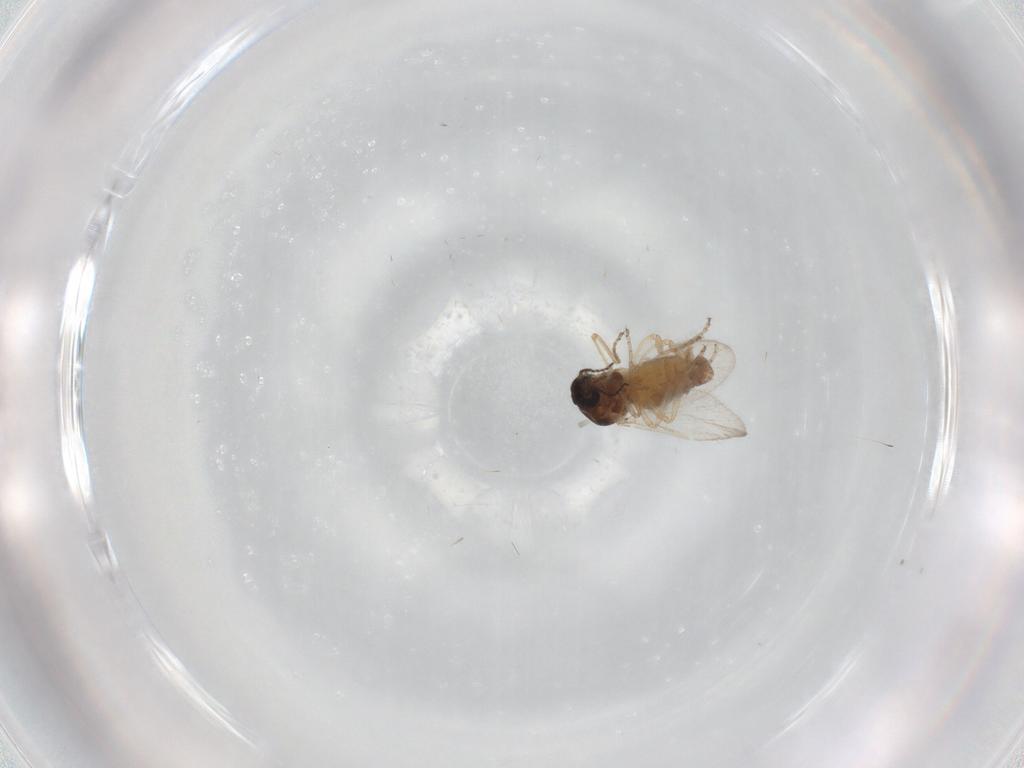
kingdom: Animalia
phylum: Arthropoda
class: Insecta
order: Diptera
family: Ceratopogonidae
